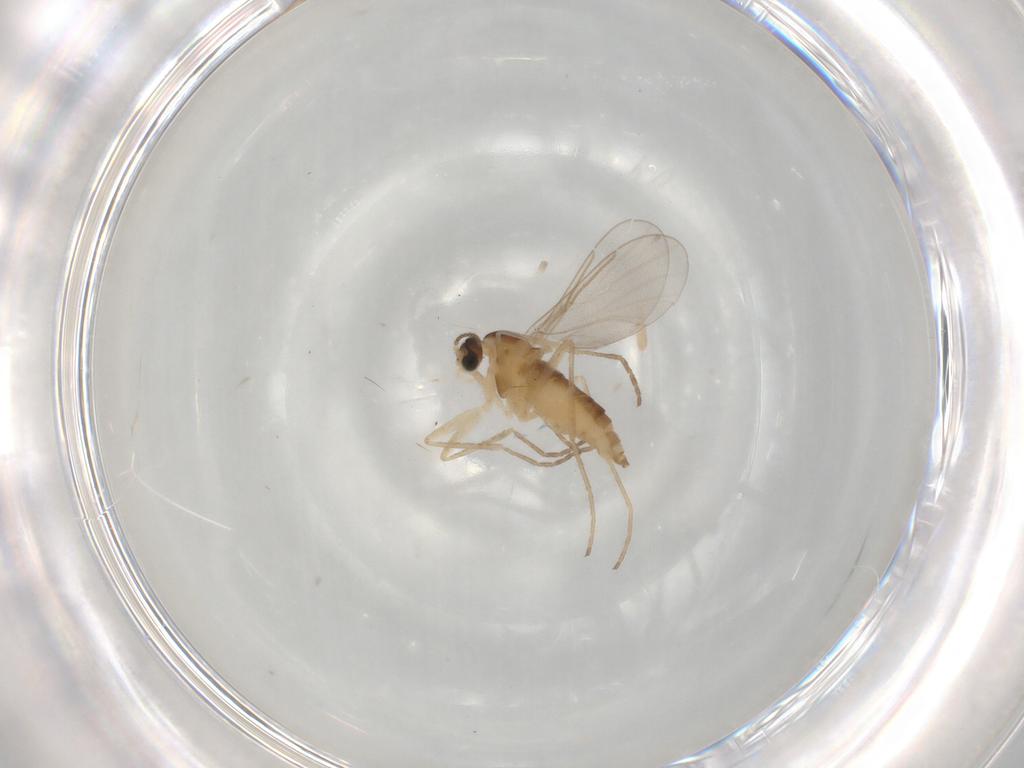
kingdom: Animalia
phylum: Arthropoda
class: Insecta
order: Diptera
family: Cecidomyiidae
